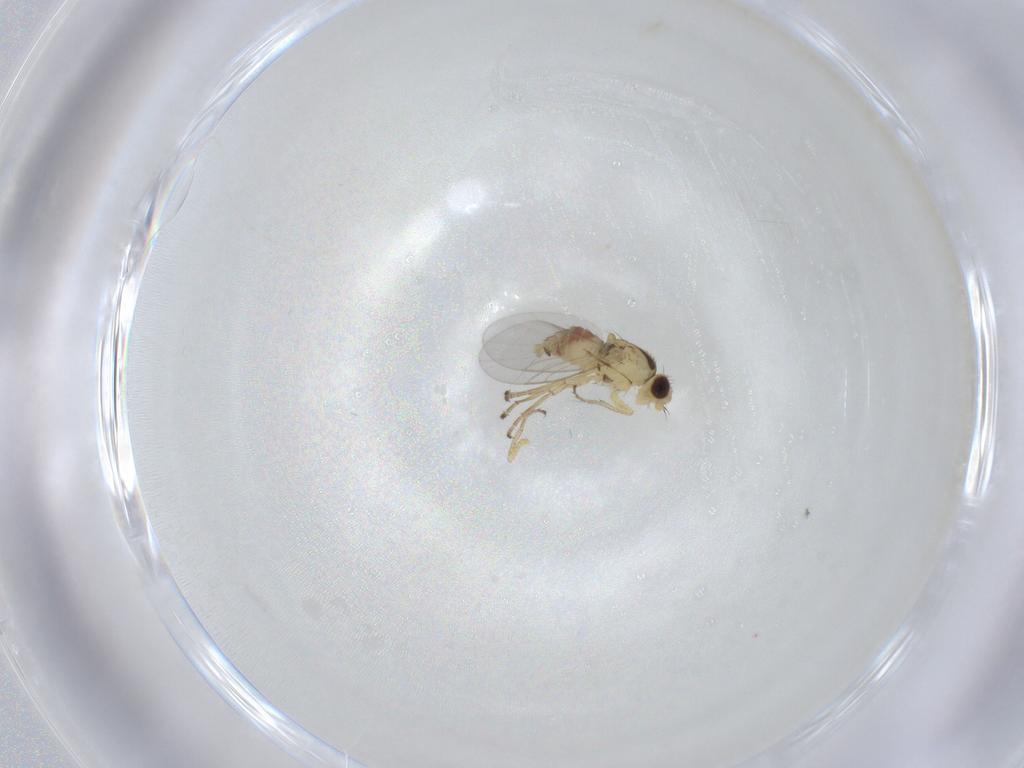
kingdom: Animalia
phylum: Arthropoda
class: Insecta
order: Diptera
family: Agromyzidae
